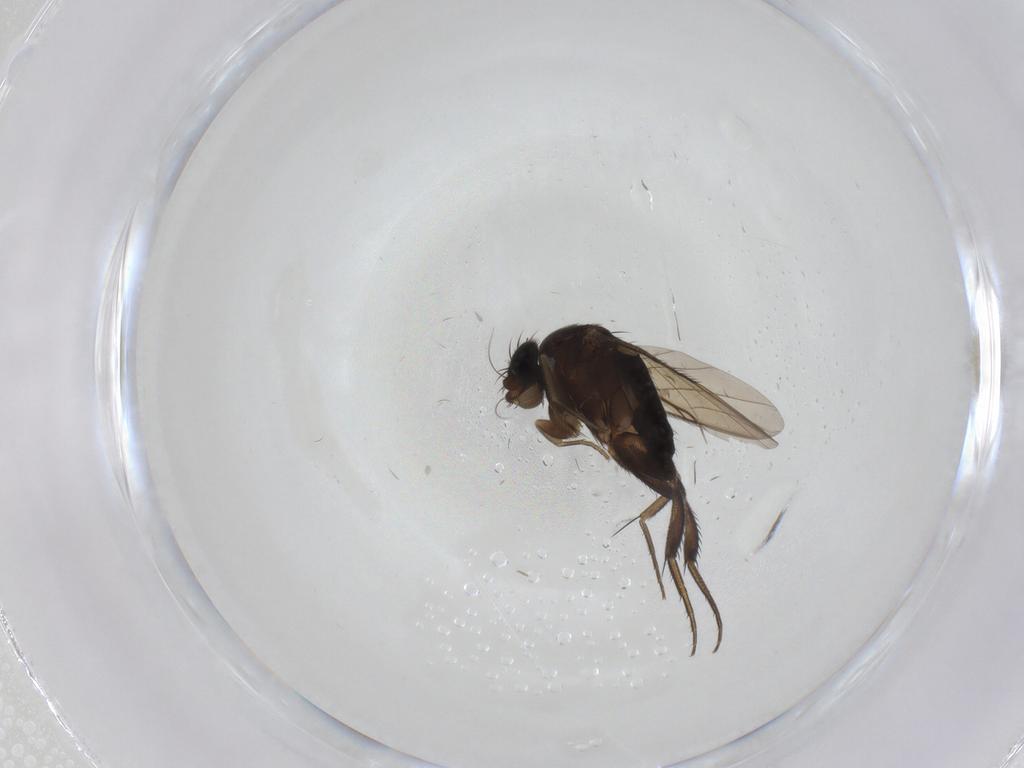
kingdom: Animalia
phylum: Arthropoda
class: Insecta
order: Diptera
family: Phoridae
